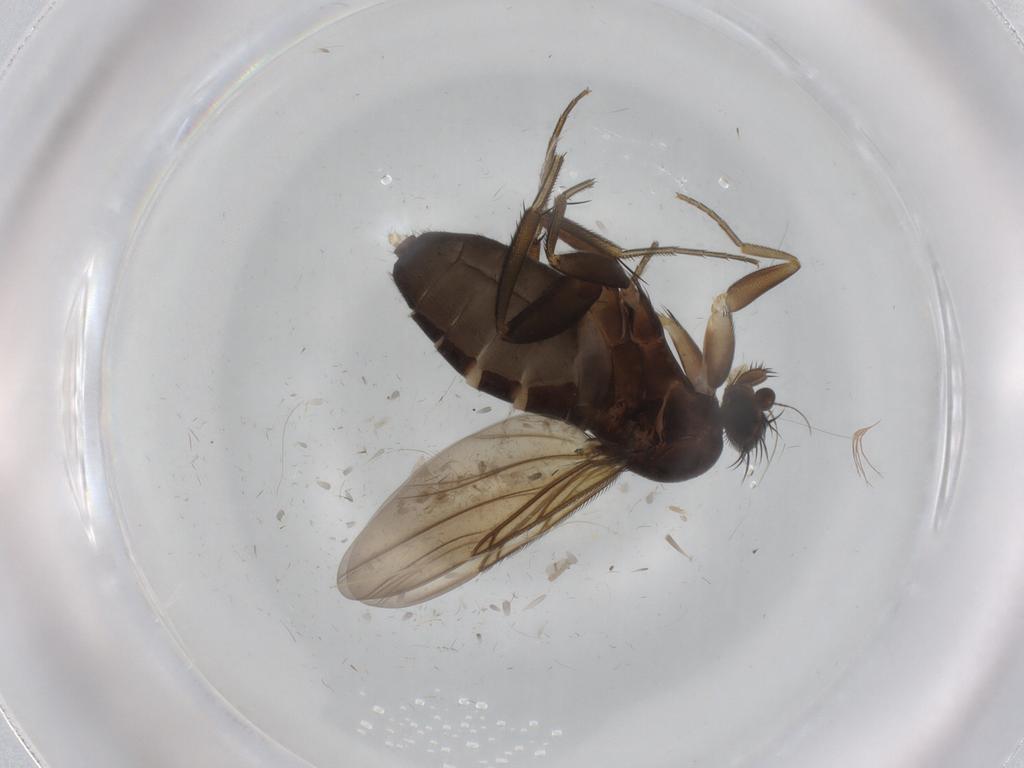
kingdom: Animalia
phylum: Arthropoda
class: Insecta
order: Diptera
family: Phoridae
